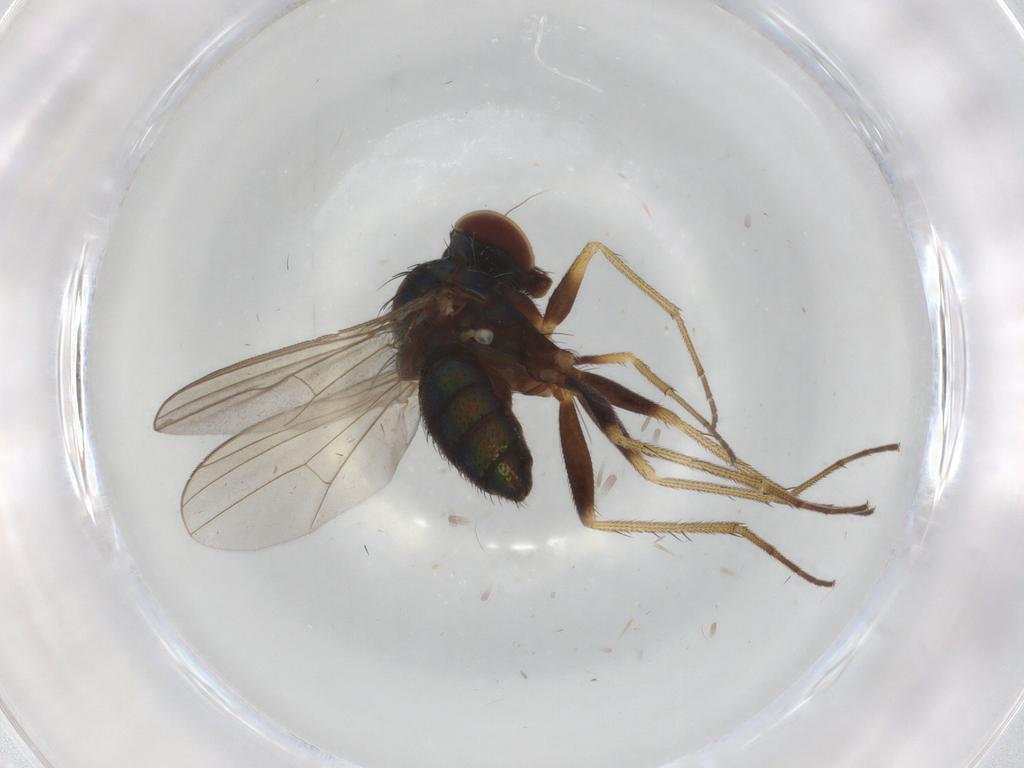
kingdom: Animalia
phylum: Arthropoda
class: Insecta
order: Diptera
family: Dolichopodidae
